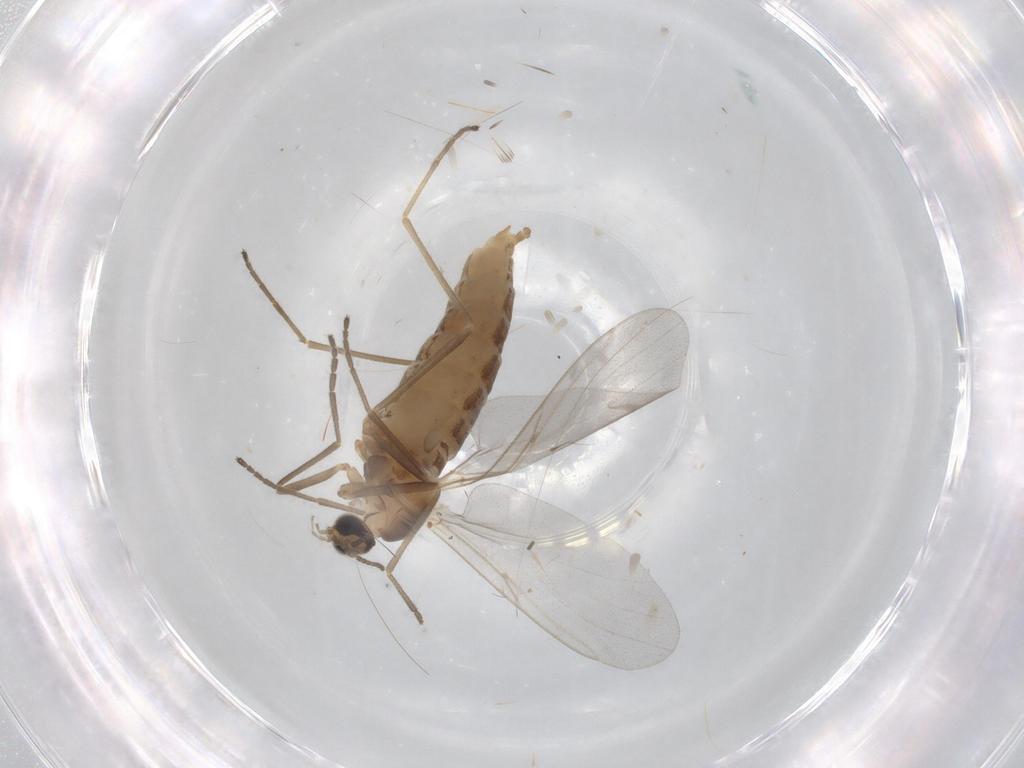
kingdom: Animalia
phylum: Arthropoda
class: Insecta
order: Diptera
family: Cecidomyiidae
